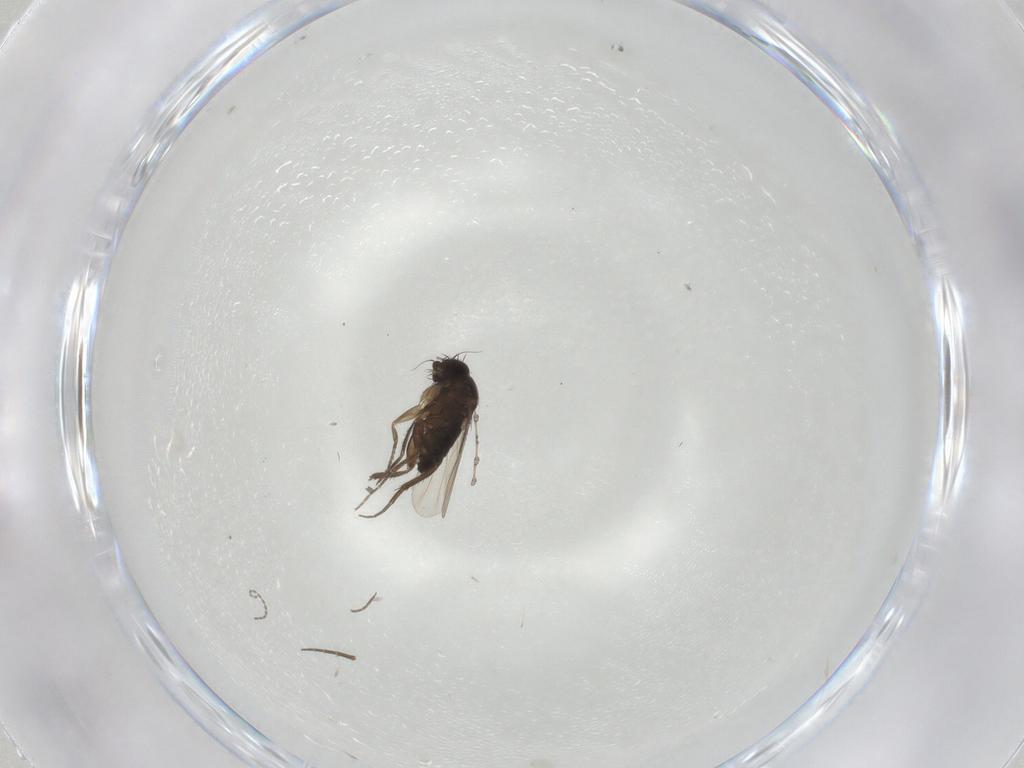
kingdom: Animalia
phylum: Arthropoda
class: Insecta
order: Diptera
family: Phoridae
